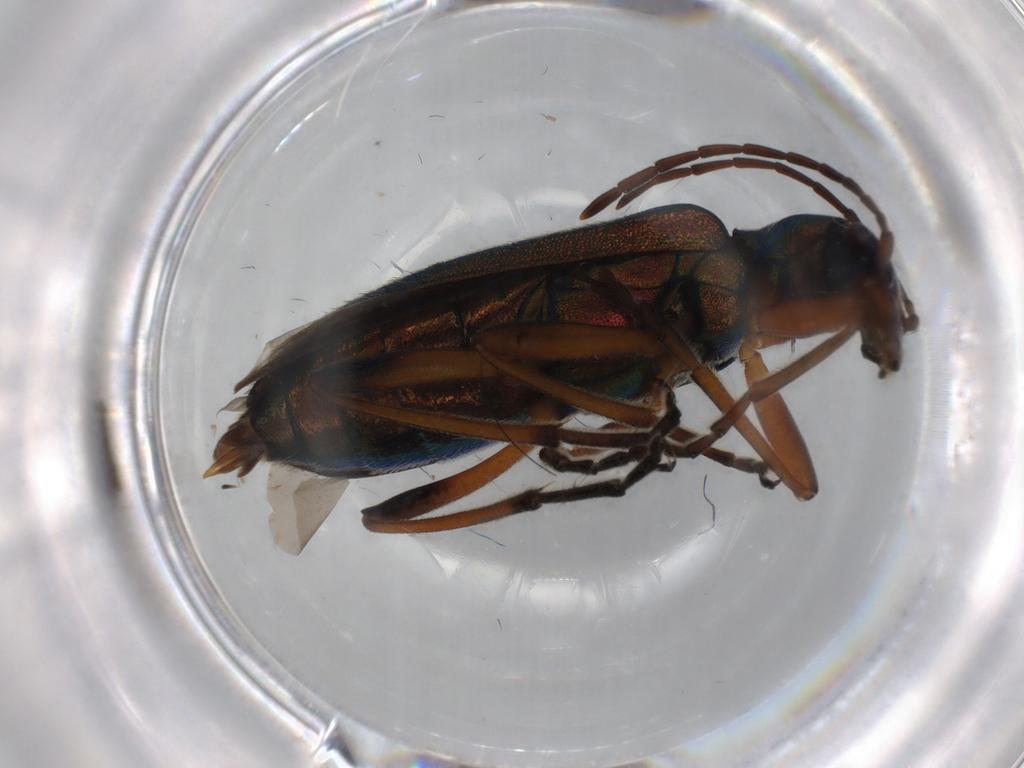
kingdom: Animalia
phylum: Arthropoda
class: Insecta
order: Coleoptera
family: Oedemeridae
